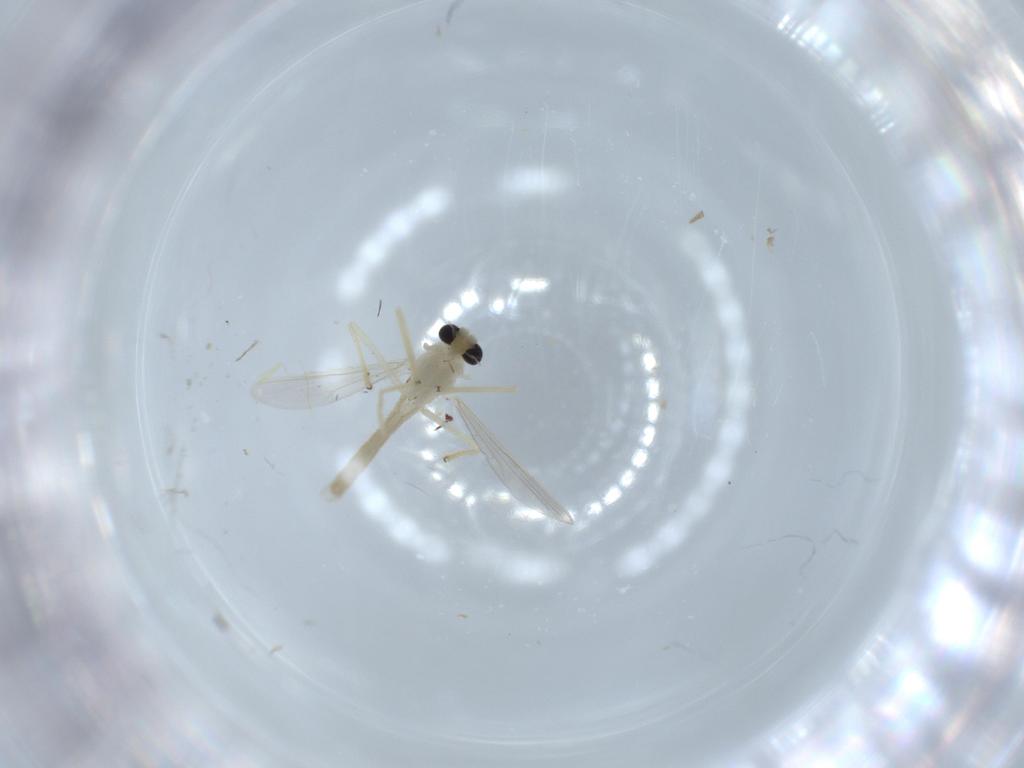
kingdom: Animalia
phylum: Arthropoda
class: Insecta
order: Diptera
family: Chironomidae
